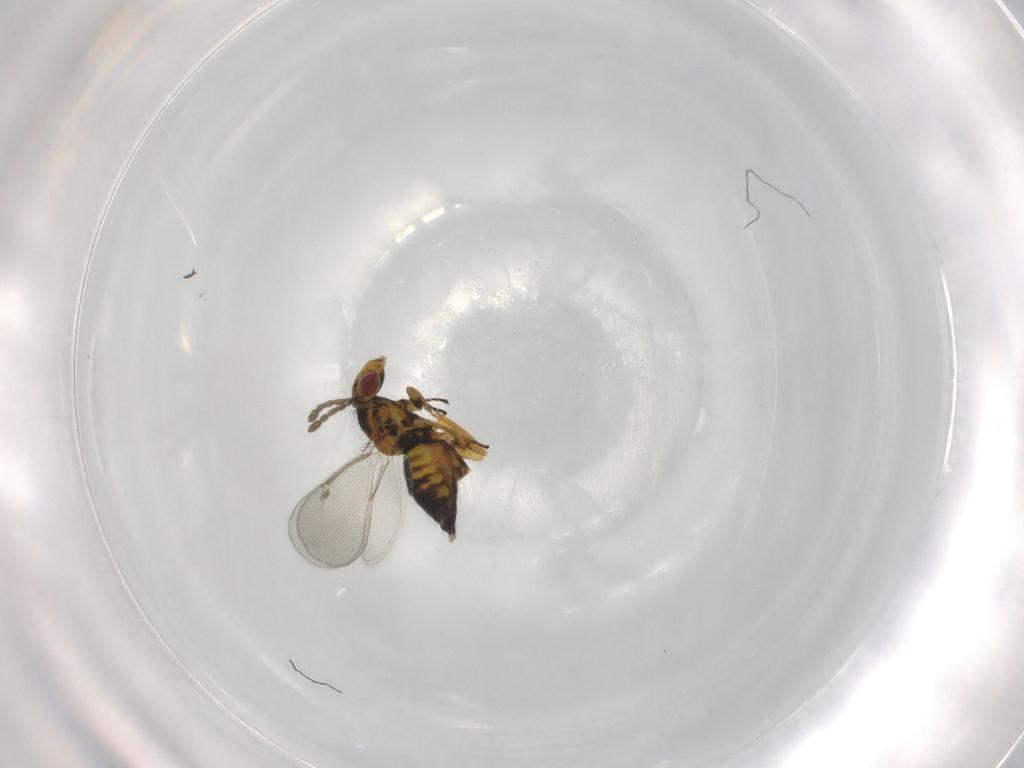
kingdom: Animalia
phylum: Arthropoda
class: Insecta
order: Hymenoptera
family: Eulophidae
